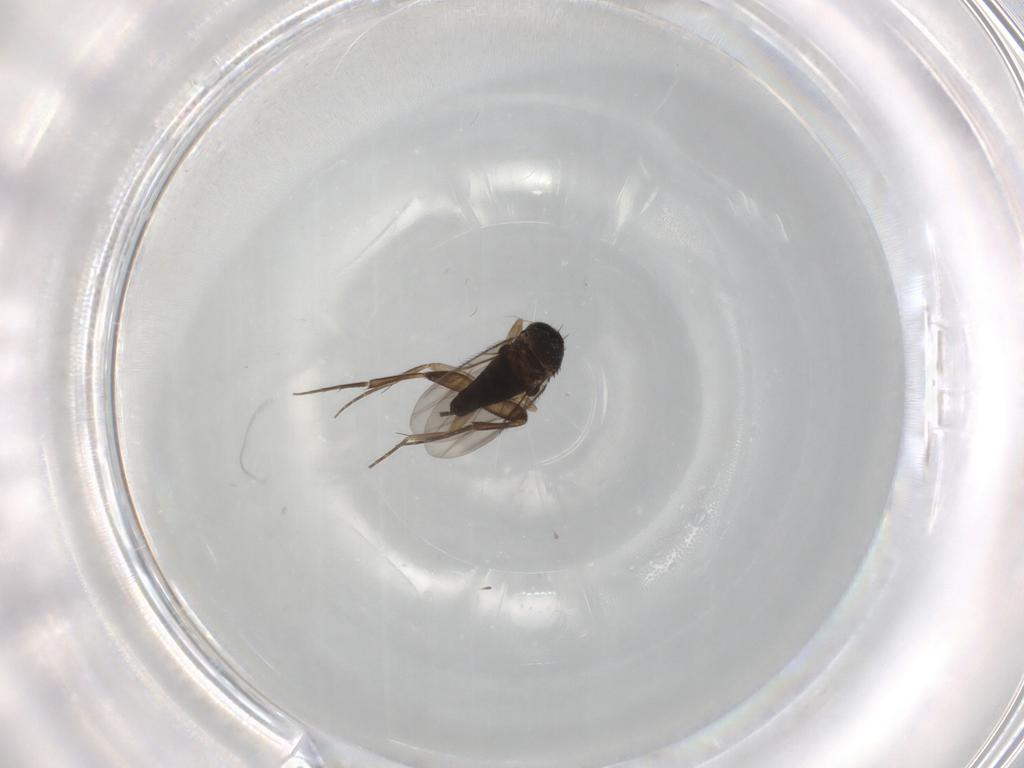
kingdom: Animalia
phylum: Arthropoda
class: Insecta
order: Diptera
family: Phoridae
